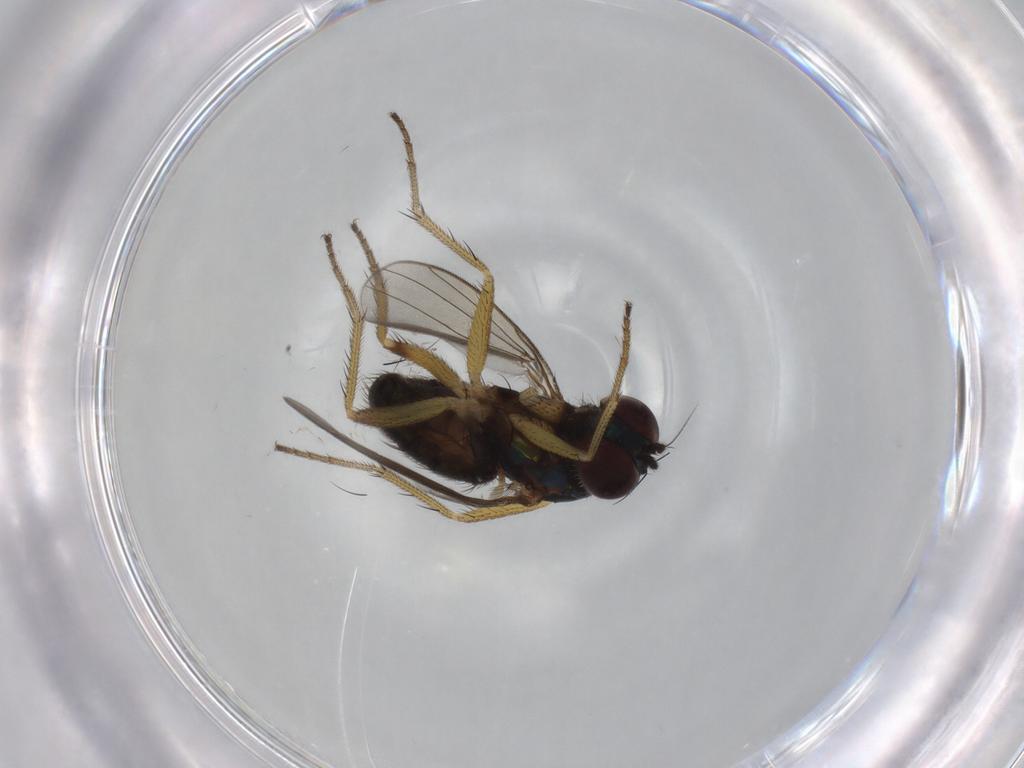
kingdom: Animalia
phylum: Arthropoda
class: Insecta
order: Diptera
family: Dolichopodidae
